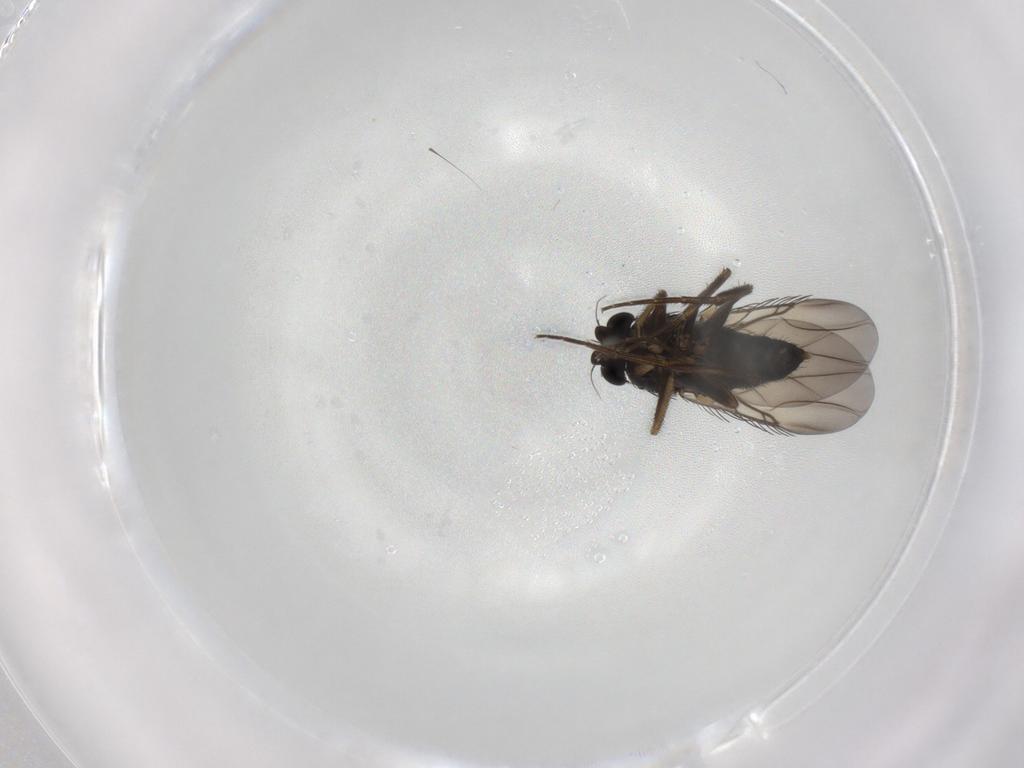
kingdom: Animalia
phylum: Arthropoda
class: Insecta
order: Diptera
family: Phoridae
